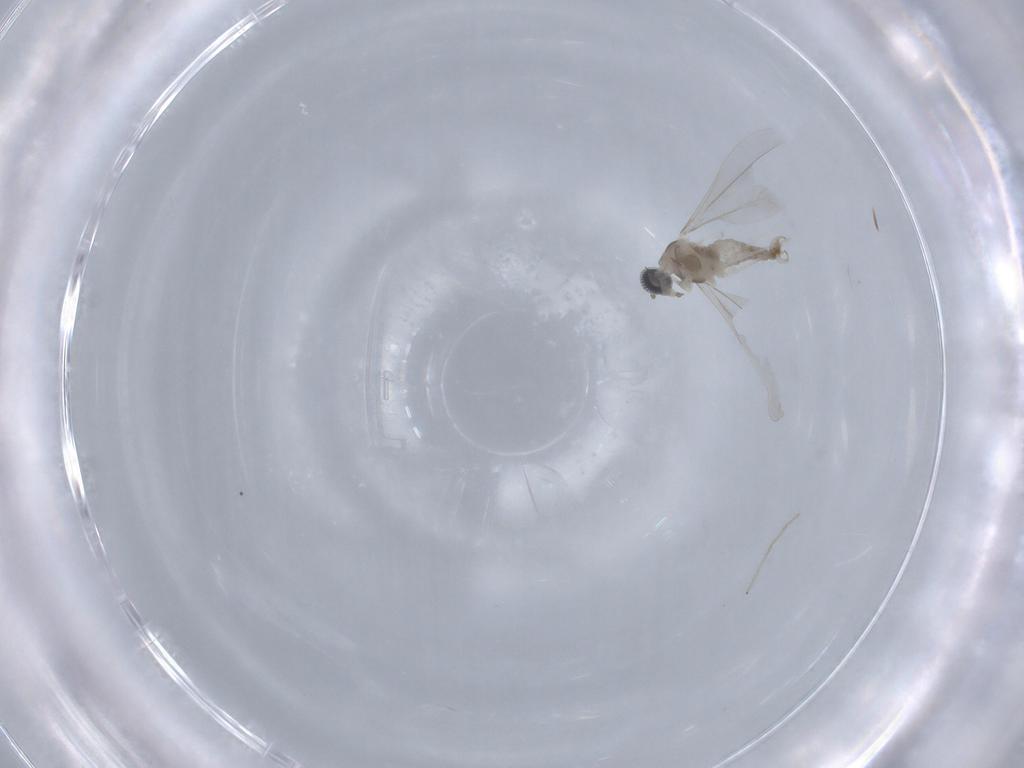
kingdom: Animalia
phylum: Arthropoda
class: Insecta
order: Diptera
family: Cecidomyiidae
